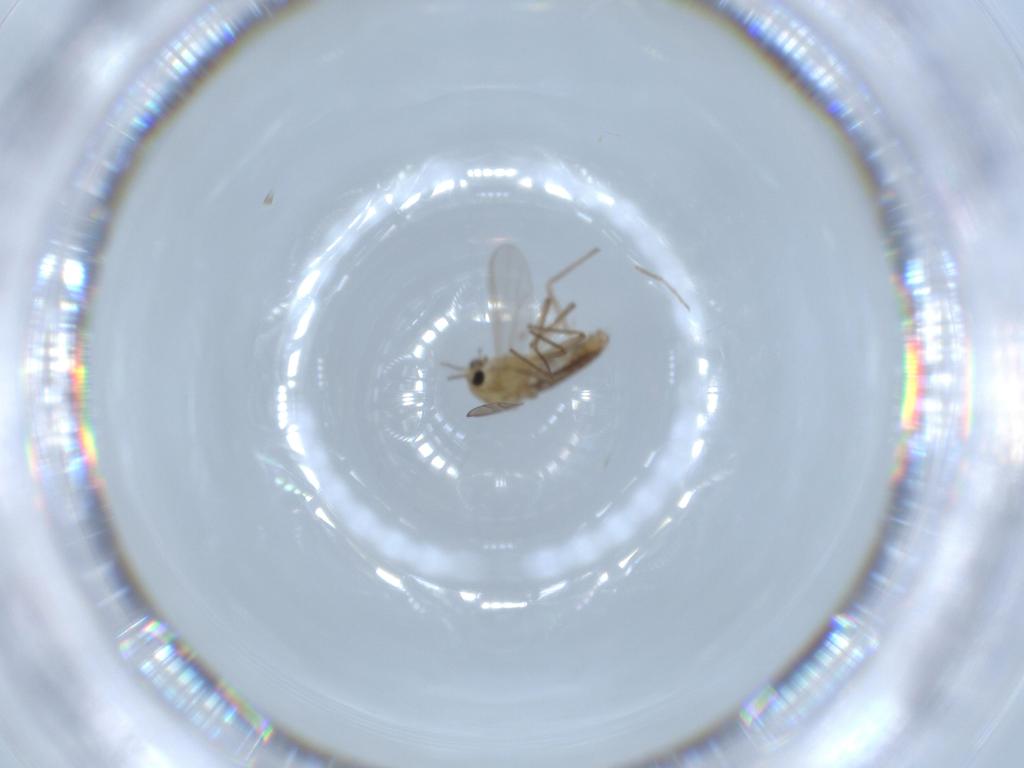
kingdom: Animalia
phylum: Arthropoda
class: Insecta
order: Diptera
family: Chironomidae
